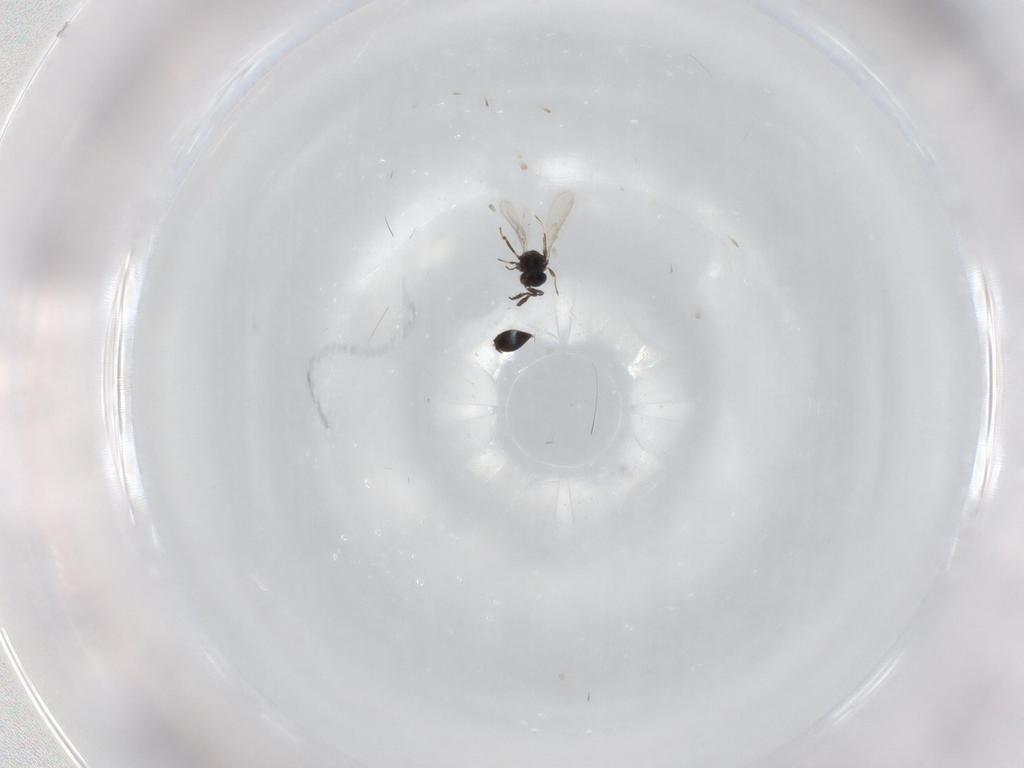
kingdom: Animalia
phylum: Arthropoda
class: Insecta
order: Hymenoptera
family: Scelionidae
